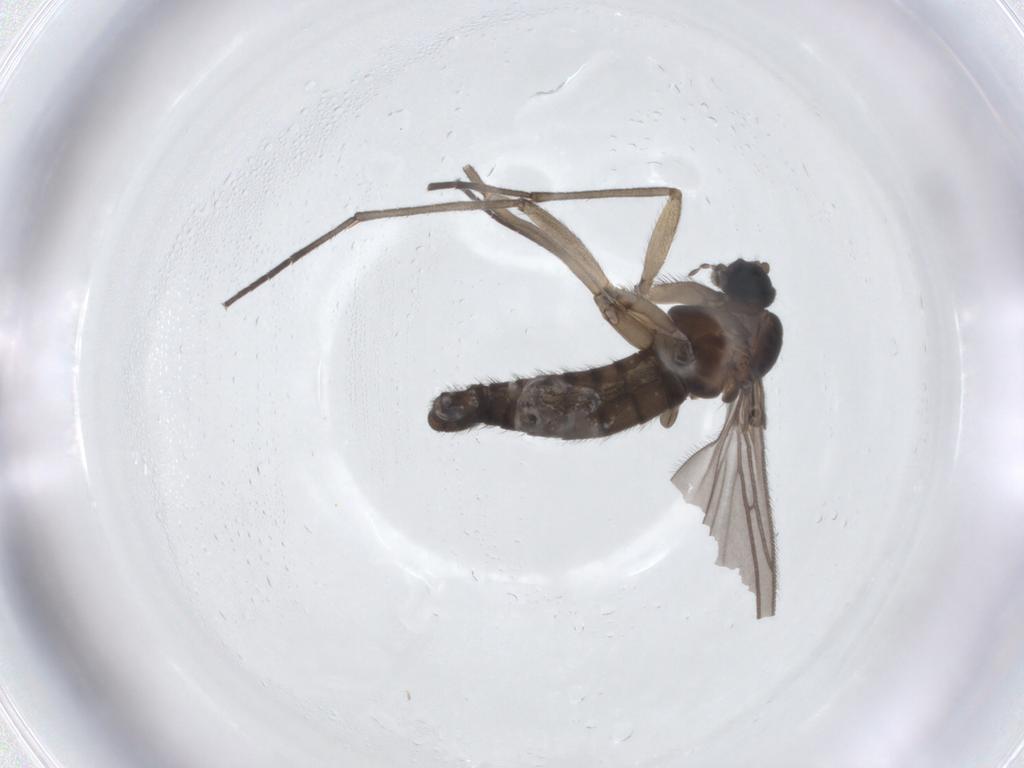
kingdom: Animalia
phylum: Arthropoda
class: Insecta
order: Diptera
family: Sciaridae
